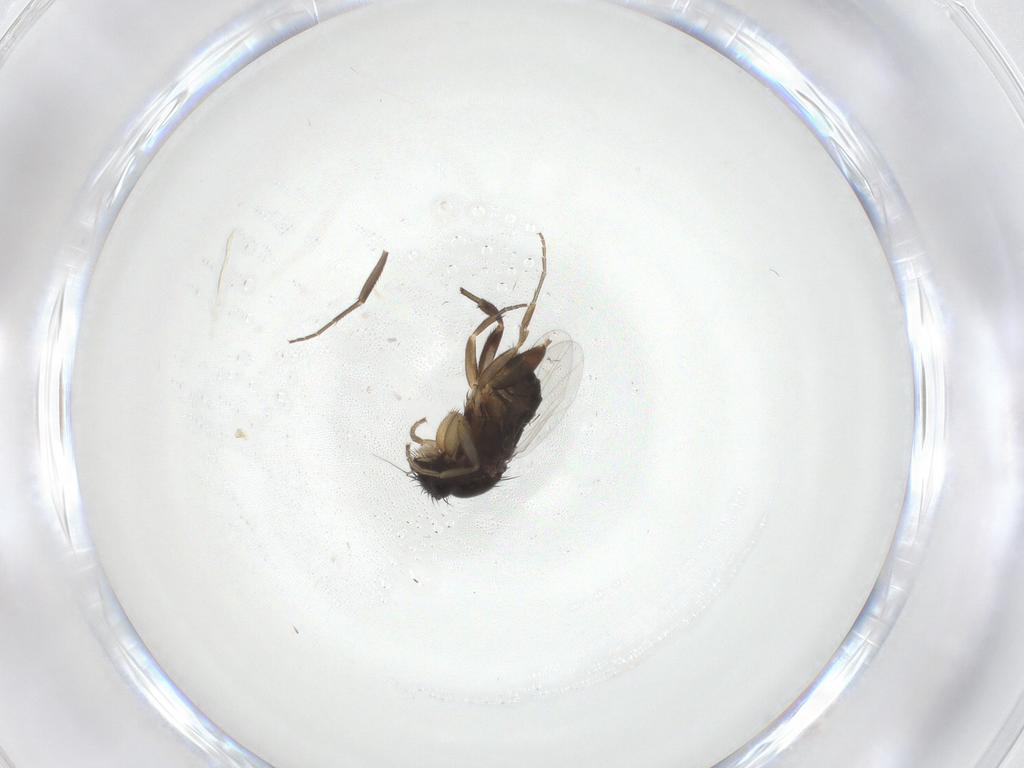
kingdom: Animalia
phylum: Arthropoda
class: Insecta
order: Diptera
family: Phoridae
